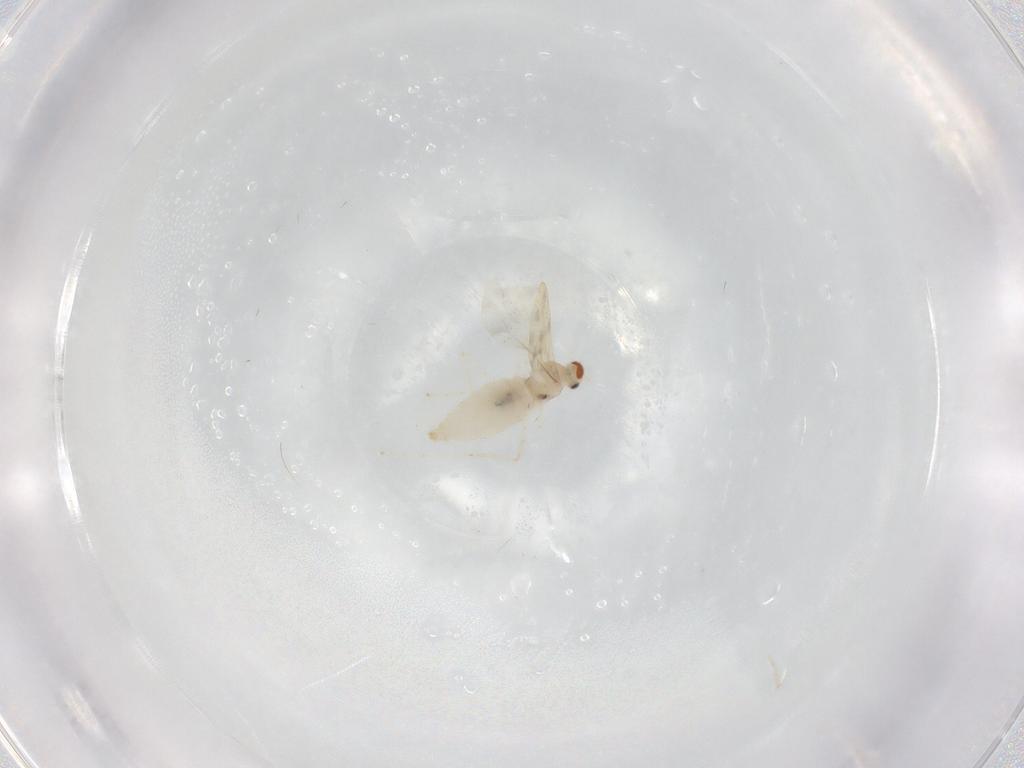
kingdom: Animalia
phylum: Arthropoda
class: Insecta
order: Diptera
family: Cecidomyiidae
